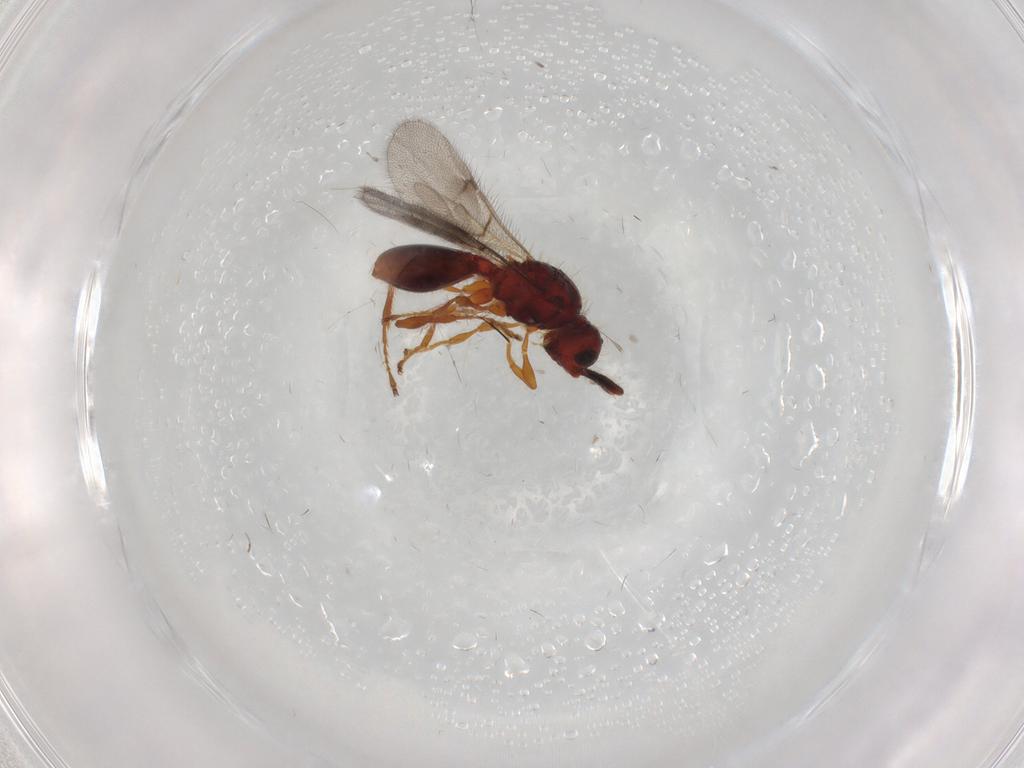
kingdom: Animalia
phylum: Arthropoda
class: Insecta
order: Hymenoptera
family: Diapriidae
